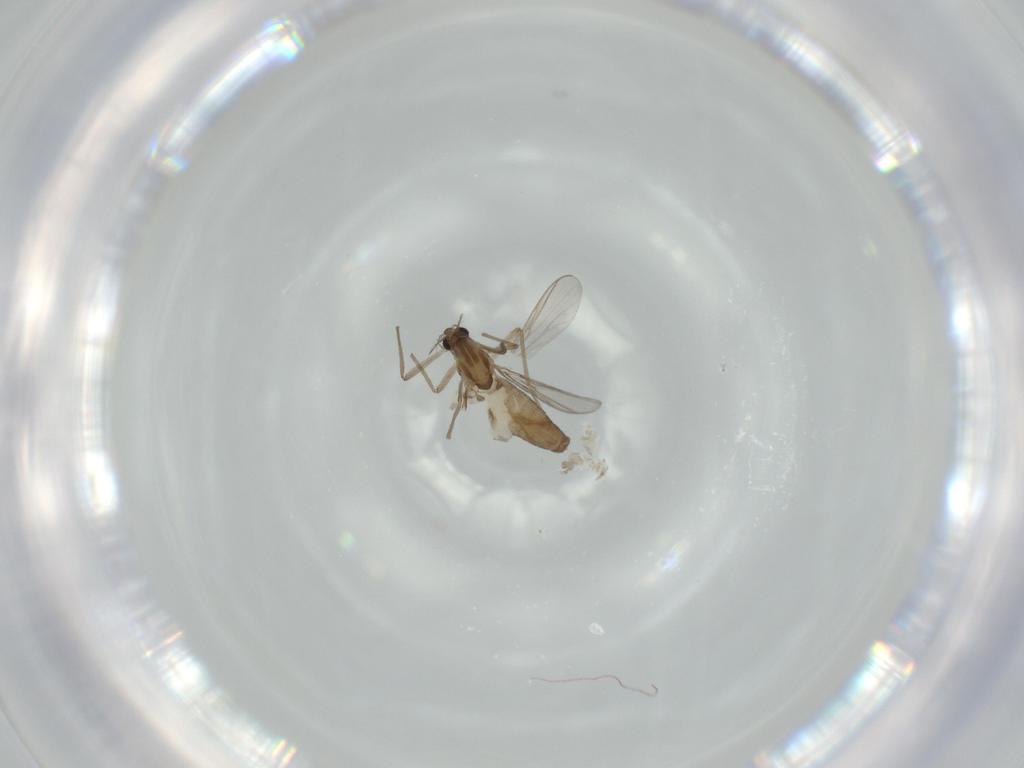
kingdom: Animalia
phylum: Arthropoda
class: Insecta
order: Diptera
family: Chironomidae
